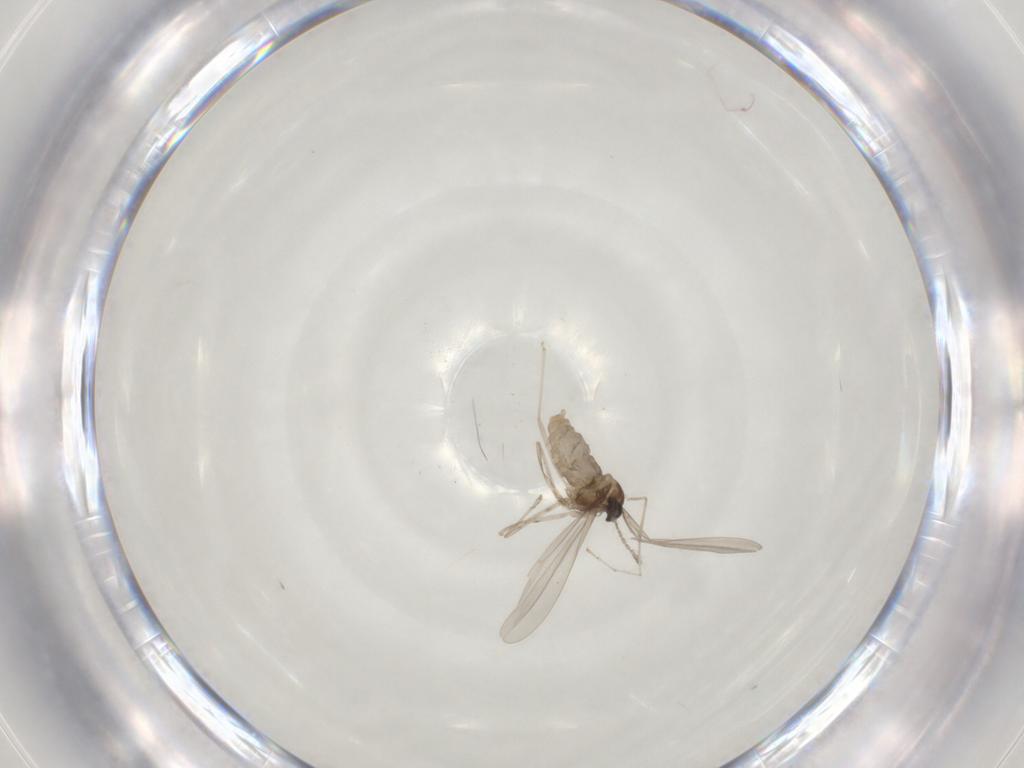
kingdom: Animalia
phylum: Arthropoda
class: Insecta
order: Diptera
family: Cecidomyiidae
